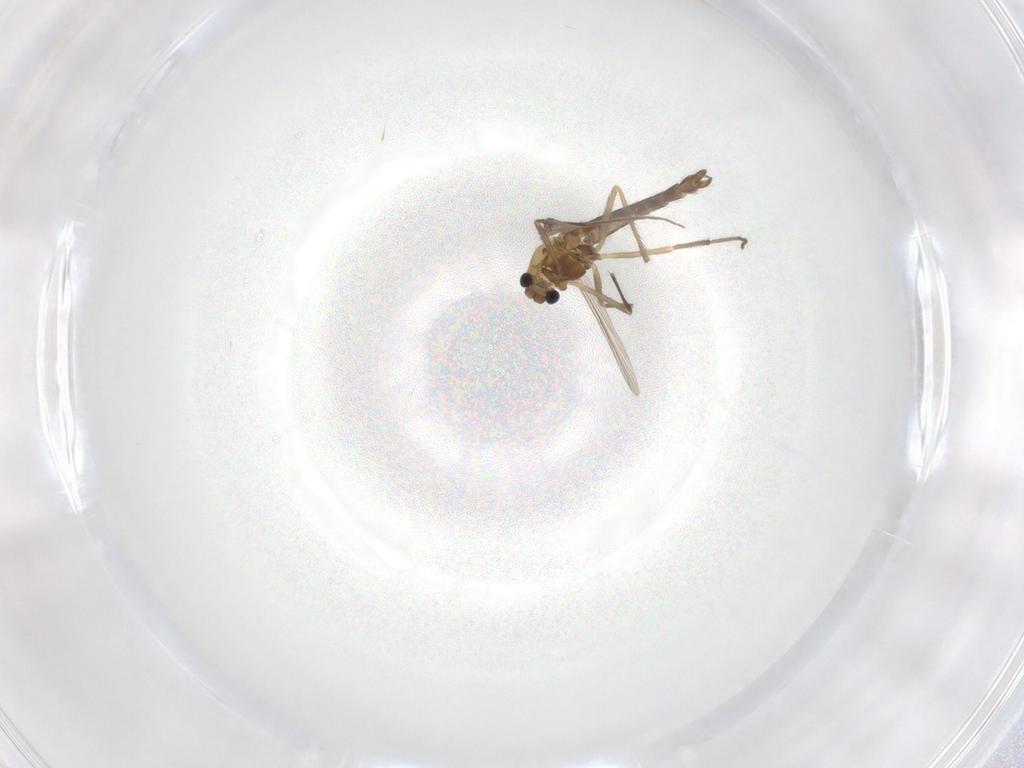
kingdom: Animalia
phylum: Arthropoda
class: Insecta
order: Diptera
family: Chironomidae
